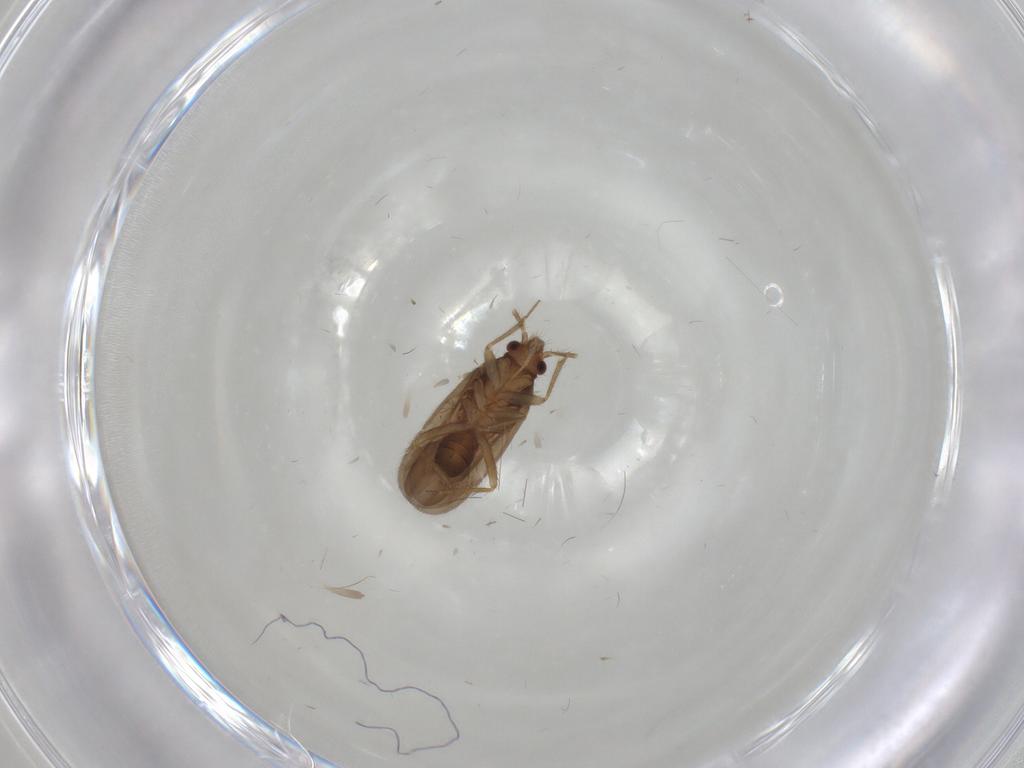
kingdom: Animalia
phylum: Arthropoda
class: Insecta
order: Hemiptera
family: Ceratocombidae
